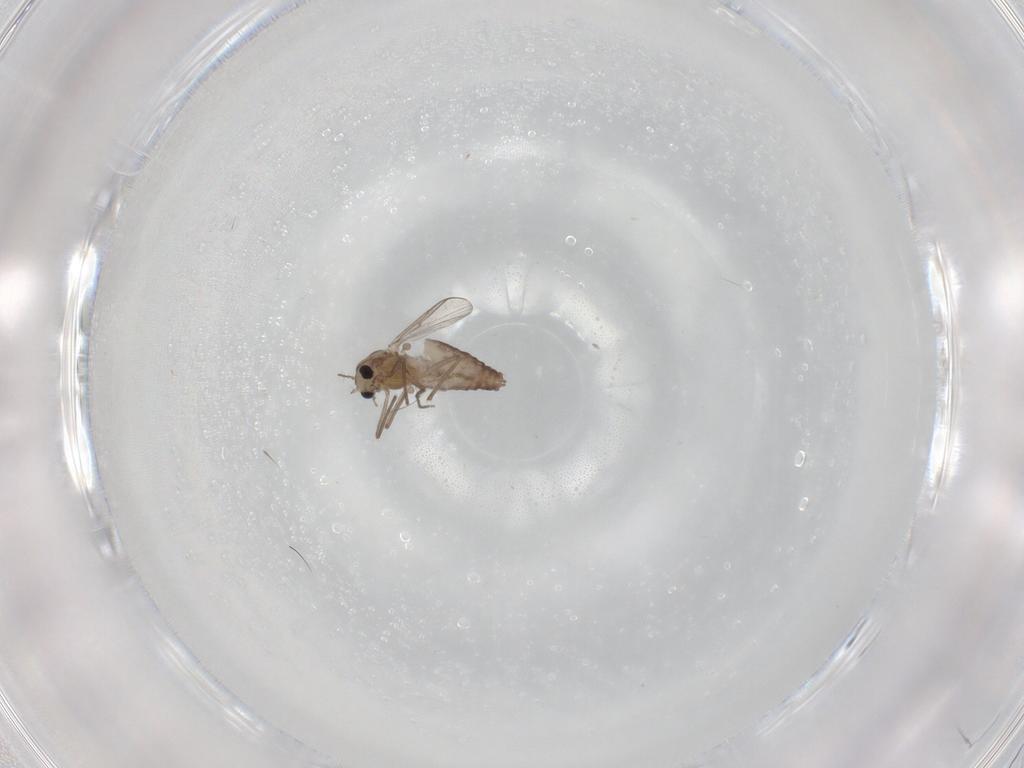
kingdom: Animalia
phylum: Arthropoda
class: Insecta
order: Diptera
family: Chironomidae
